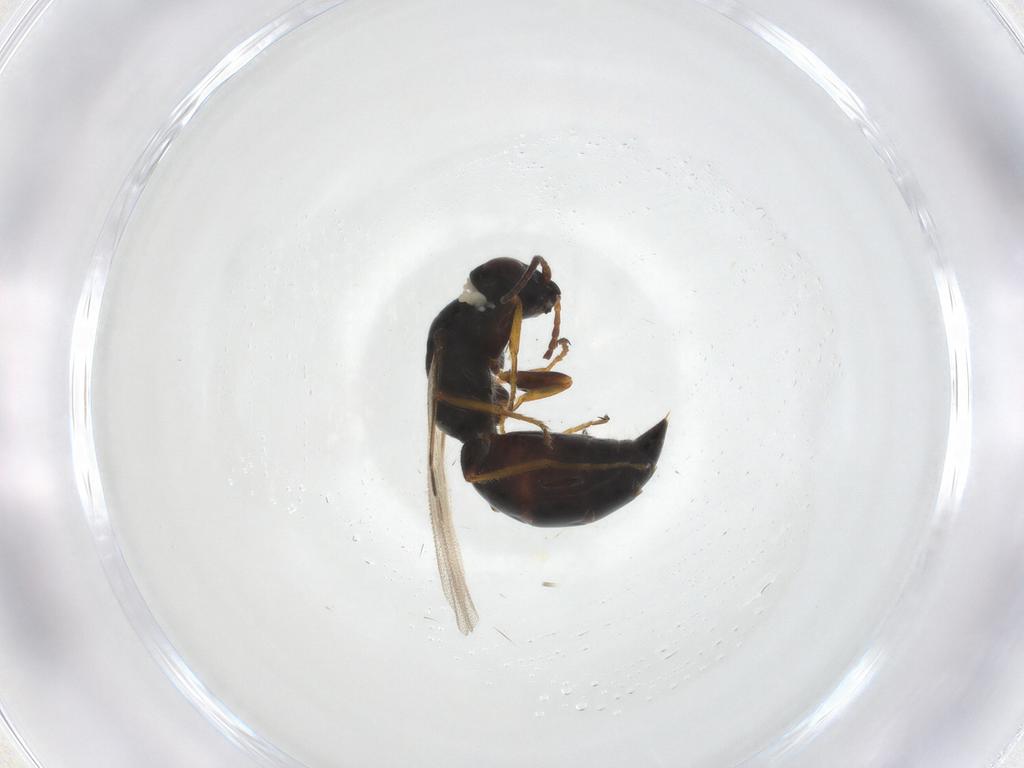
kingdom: Animalia
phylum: Arthropoda
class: Insecta
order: Hymenoptera
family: Bethylidae
